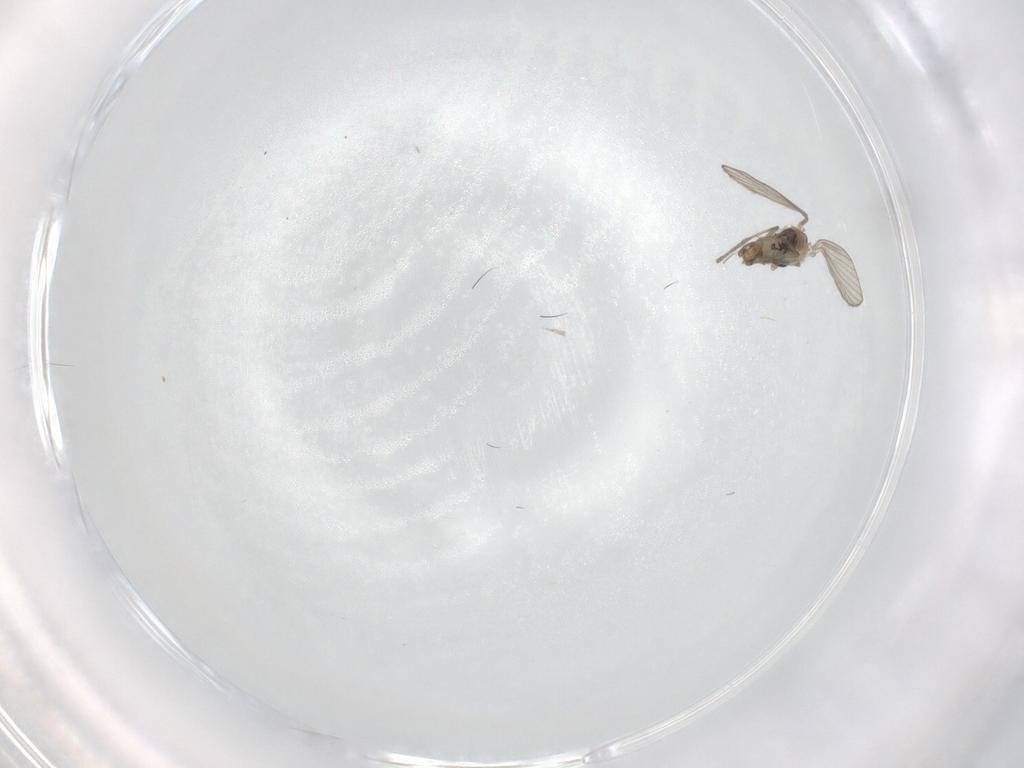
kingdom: Animalia
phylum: Arthropoda
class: Insecta
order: Diptera
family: Psychodidae
